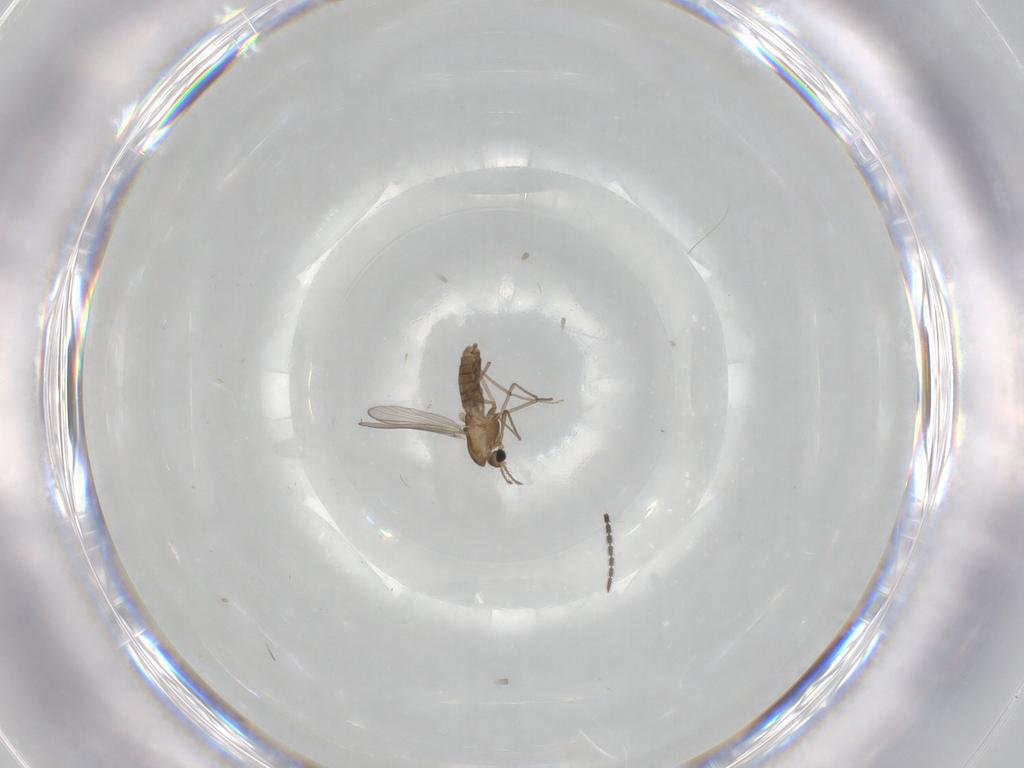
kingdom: Animalia
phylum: Arthropoda
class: Insecta
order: Diptera
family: Chironomidae
